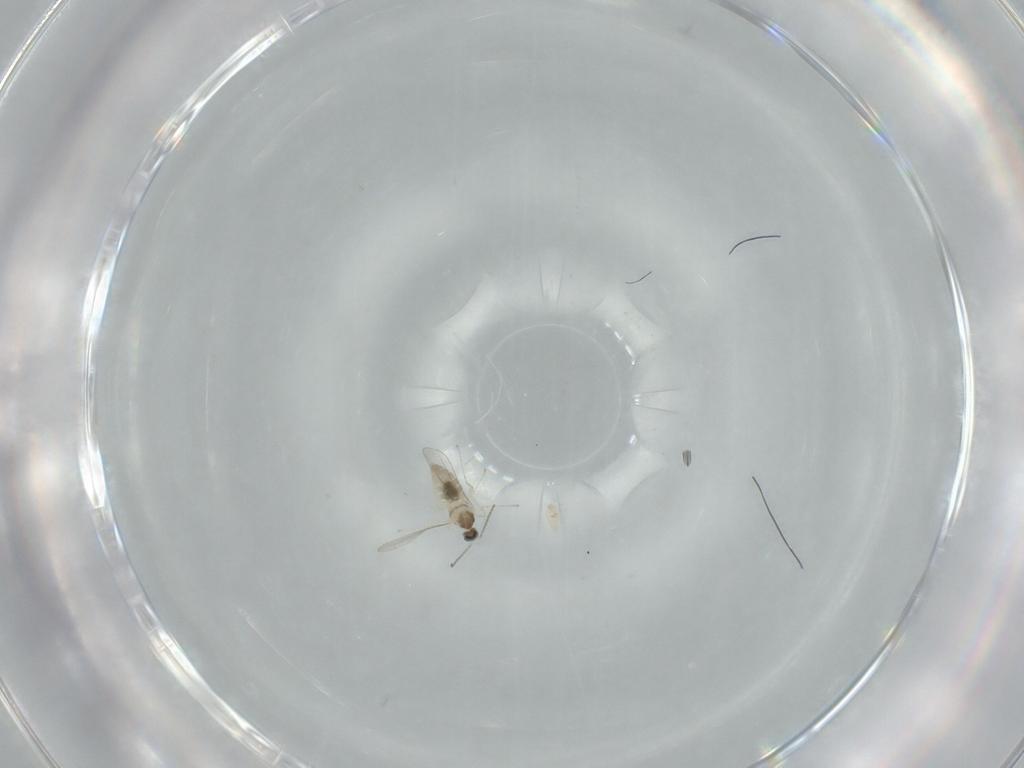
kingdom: Animalia
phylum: Arthropoda
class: Insecta
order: Diptera
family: Cecidomyiidae
